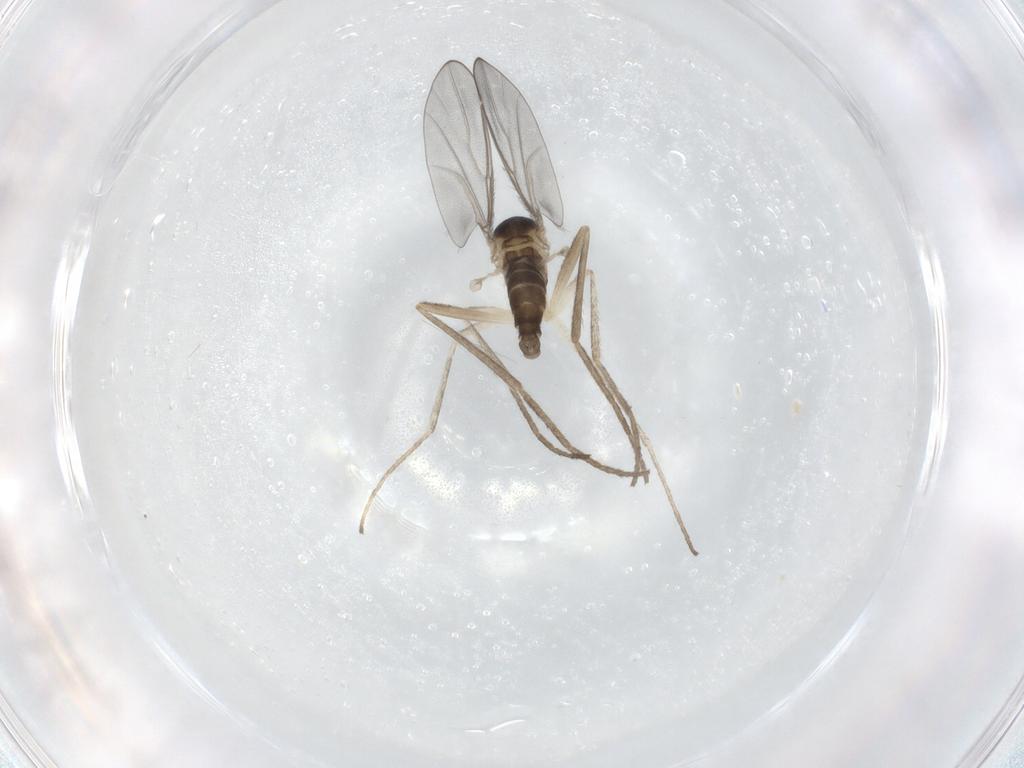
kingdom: Animalia
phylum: Arthropoda
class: Insecta
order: Diptera
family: Cecidomyiidae
